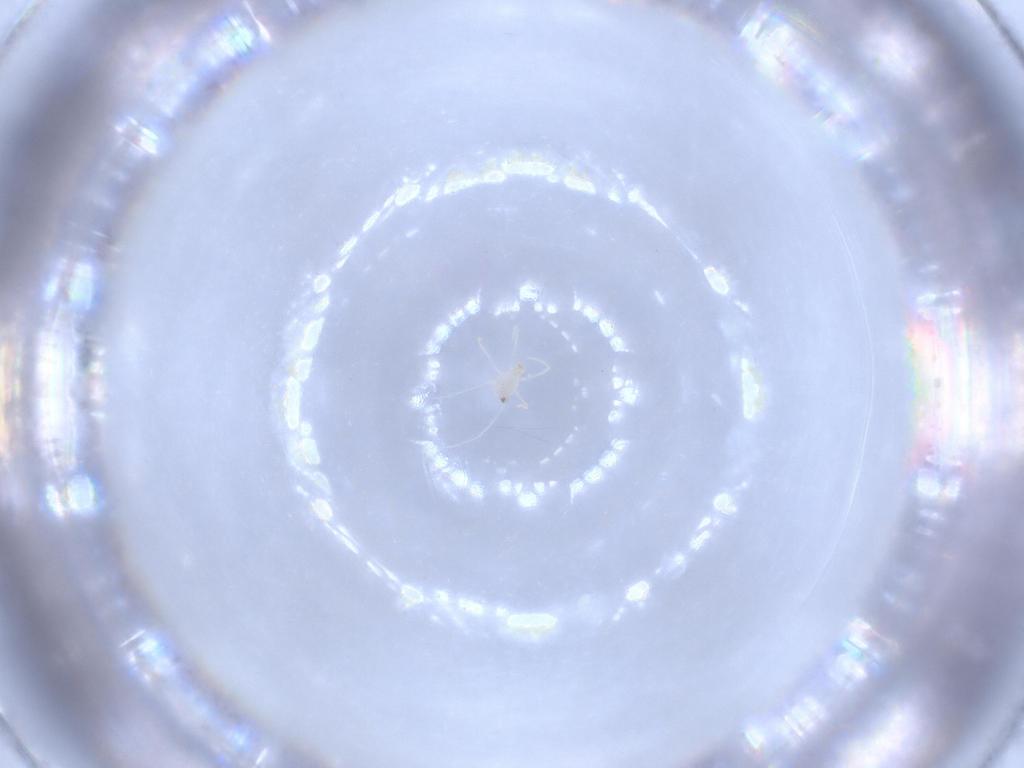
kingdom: Animalia
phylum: Arthropoda
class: Arachnida
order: Trombidiformes
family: Erythraeidae
